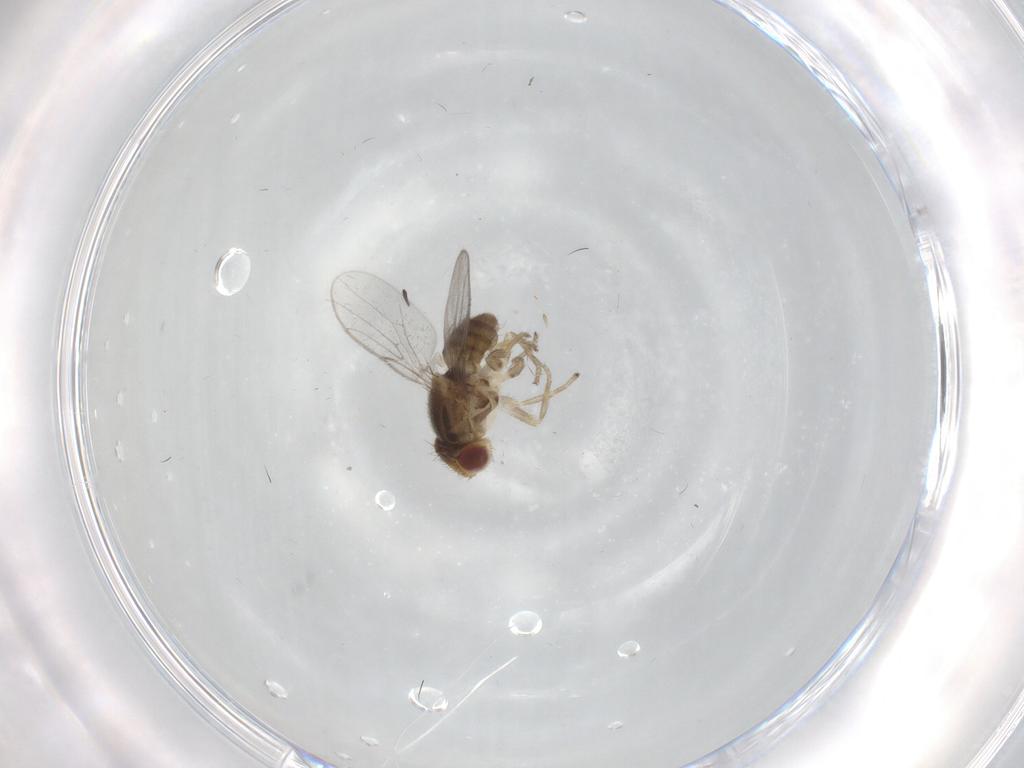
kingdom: Animalia
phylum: Arthropoda
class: Insecta
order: Diptera
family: Chloropidae
